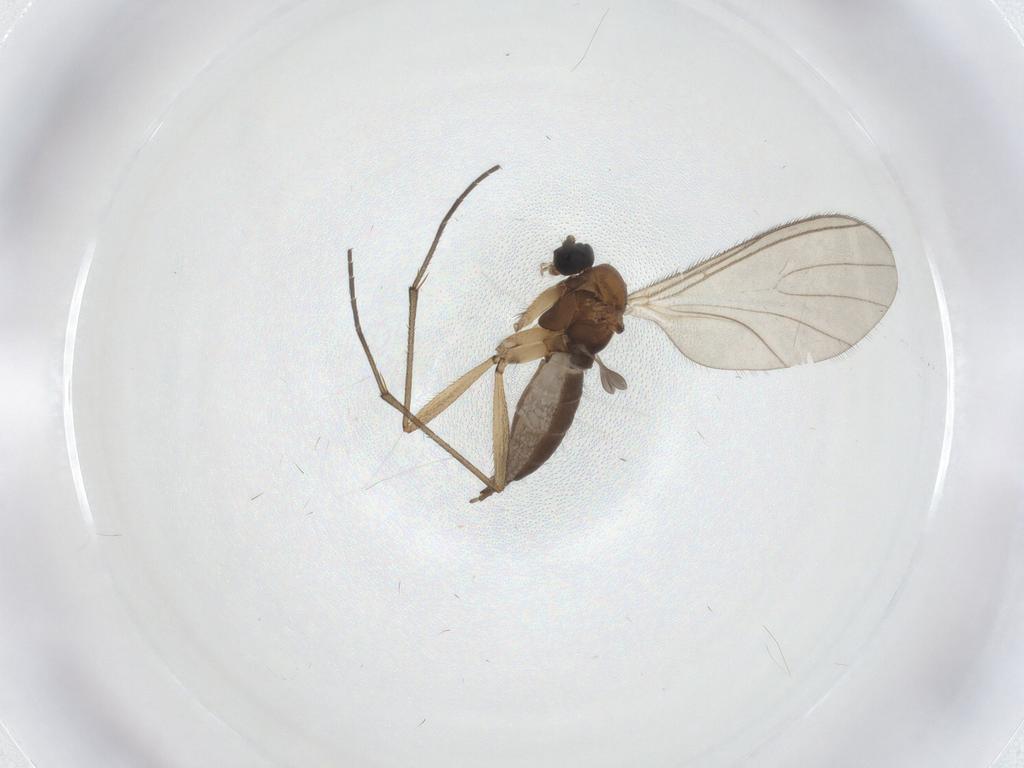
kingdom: Animalia
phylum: Arthropoda
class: Insecta
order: Diptera
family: Sciaridae
